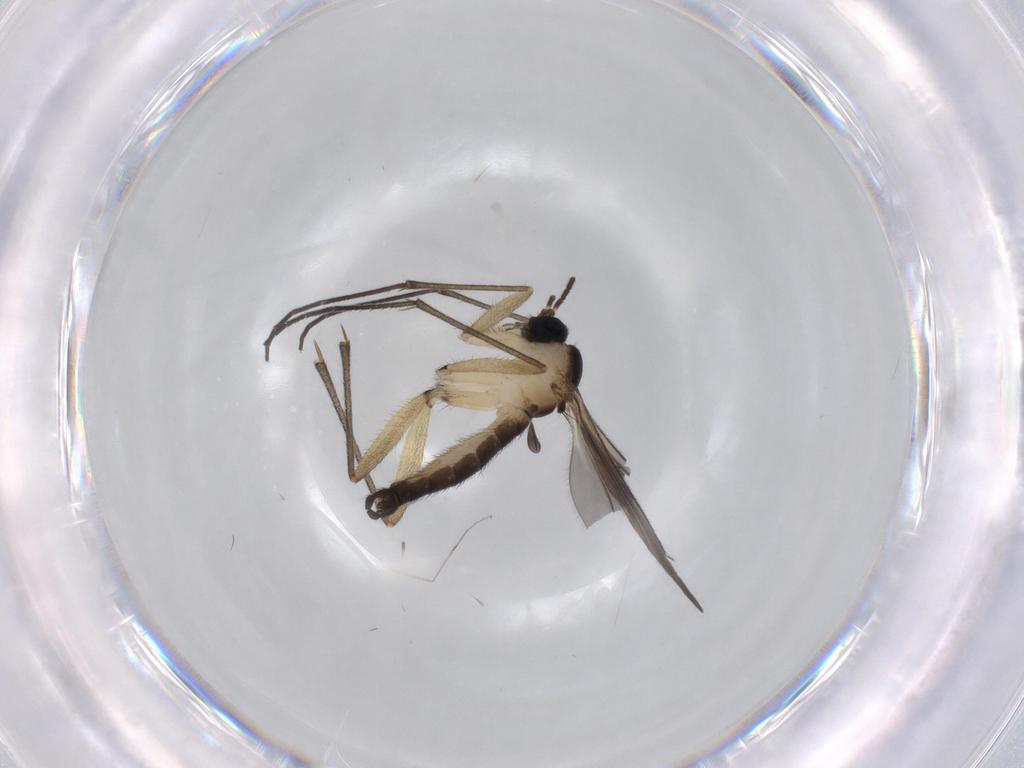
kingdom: Animalia
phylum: Arthropoda
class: Insecta
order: Diptera
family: Sciaridae
